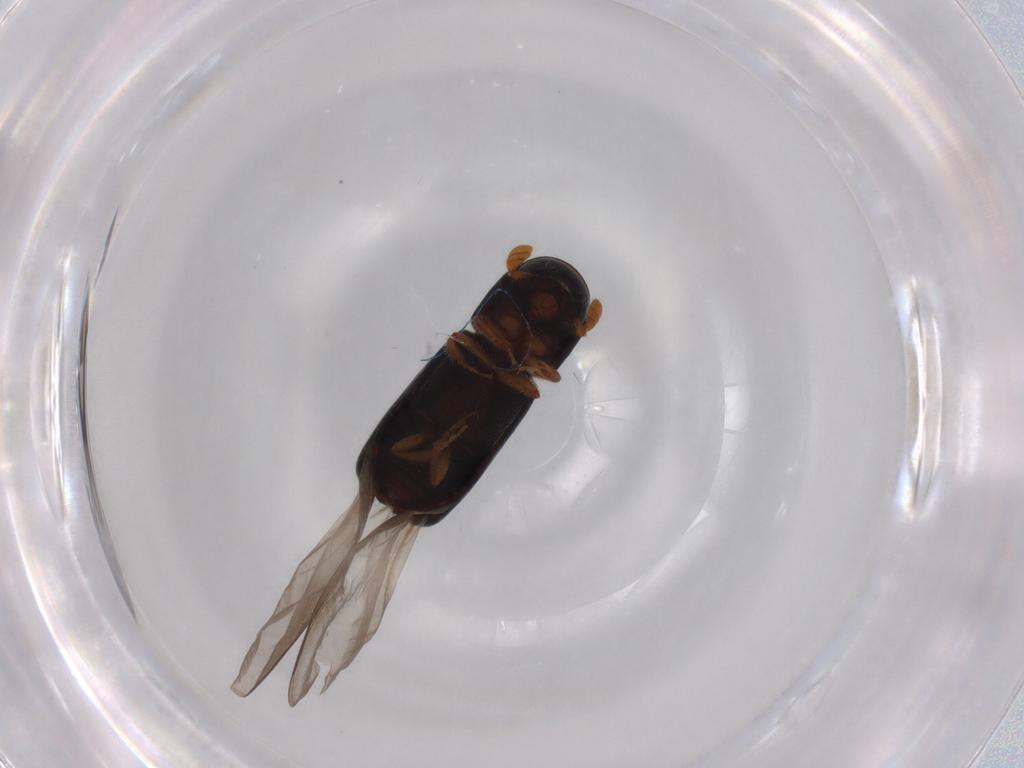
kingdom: Animalia
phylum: Arthropoda
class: Insecta
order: Coleoptera
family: Curculionidae
